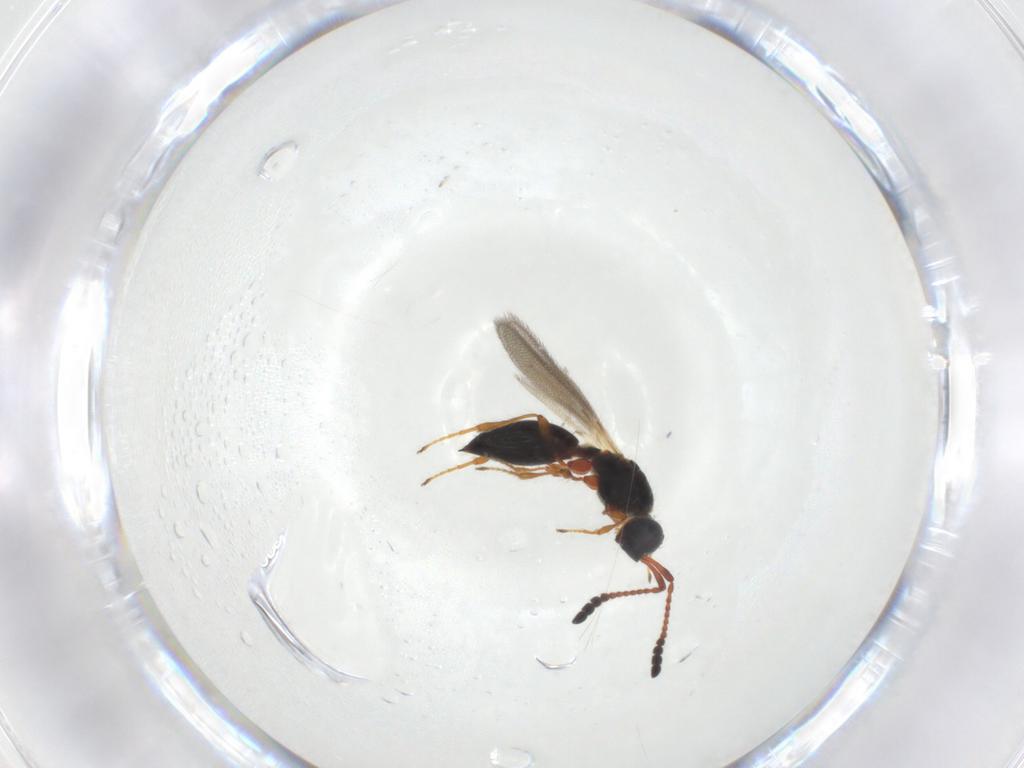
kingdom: Animalia
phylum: Arthropoda
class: Insecta
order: Hymenoptera
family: Diapriidae
